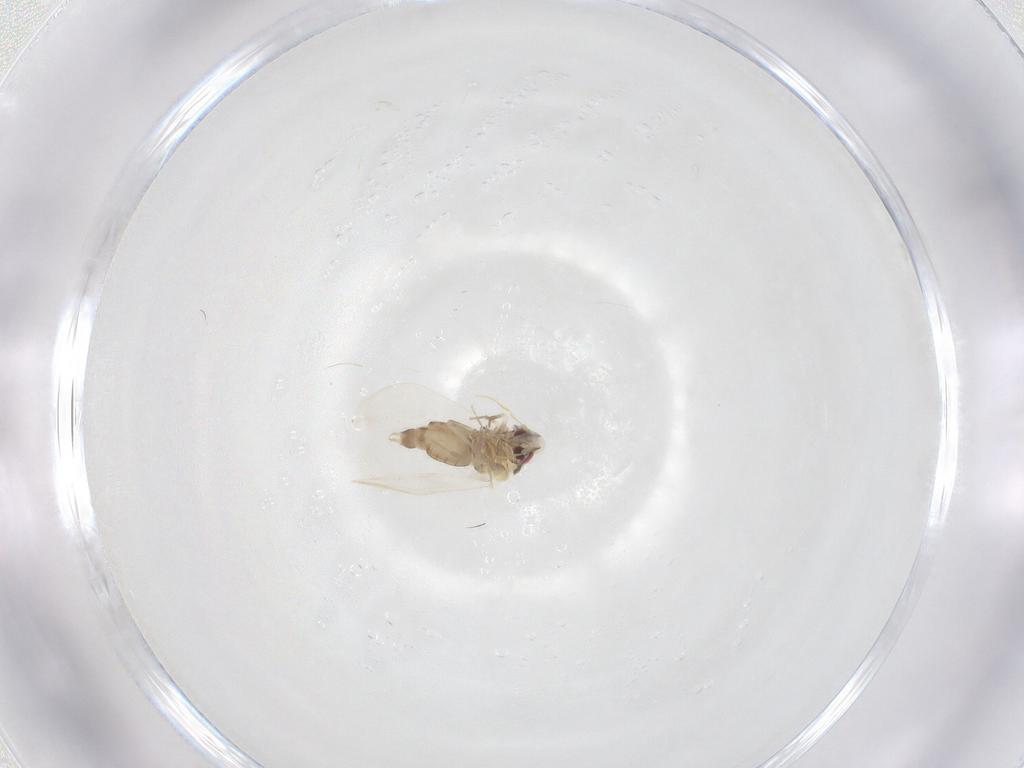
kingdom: Animalia
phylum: Arthropoda
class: Insecta
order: Hemiptera
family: Aleyrodidae
